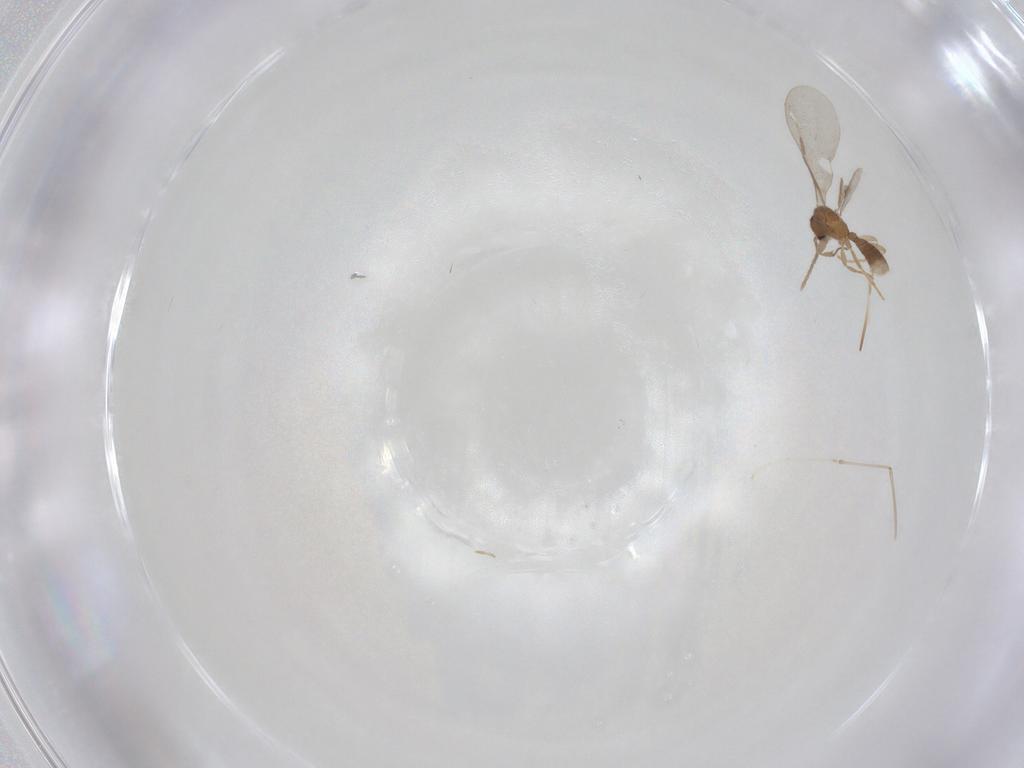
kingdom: Animalia
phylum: Arthropoda
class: Insecta
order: Hymenoptera
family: Formicidae
